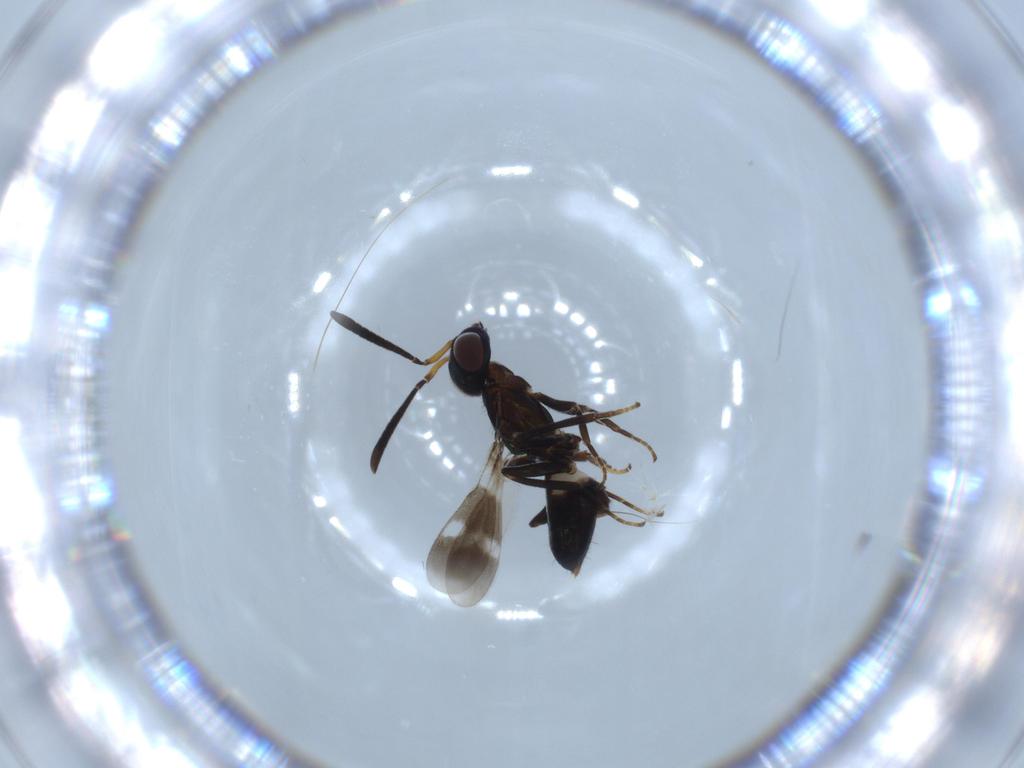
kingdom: Animalia
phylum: Arthropoda
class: Insecta
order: Hymenoptera
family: Eupelmidae
